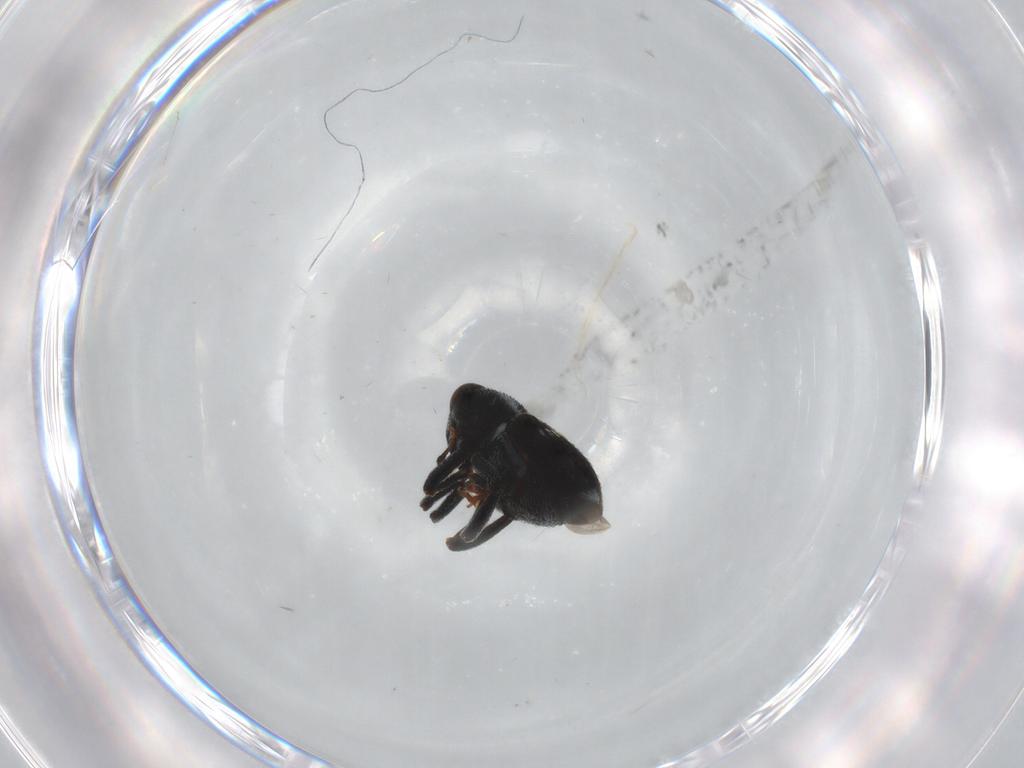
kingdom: Animalia
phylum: Arthropoda
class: Insecta
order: Coleoptera
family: Curculionidae
